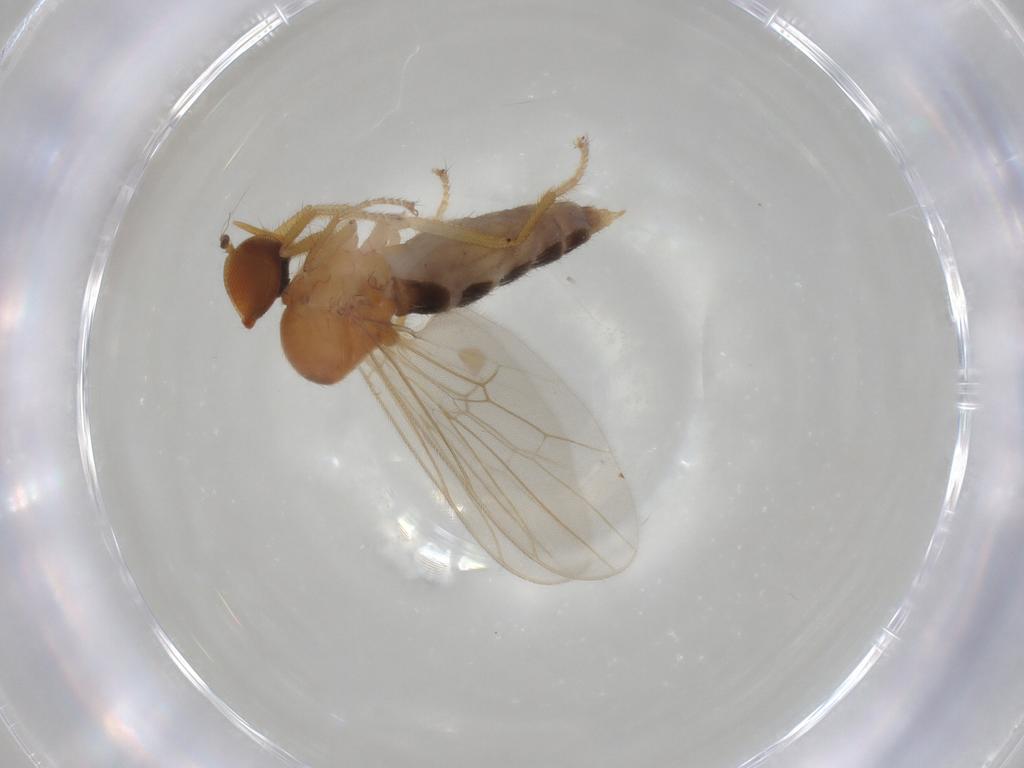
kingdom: Animalia
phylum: Arthropoda
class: Insecta
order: Diptera
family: Hybotidae
